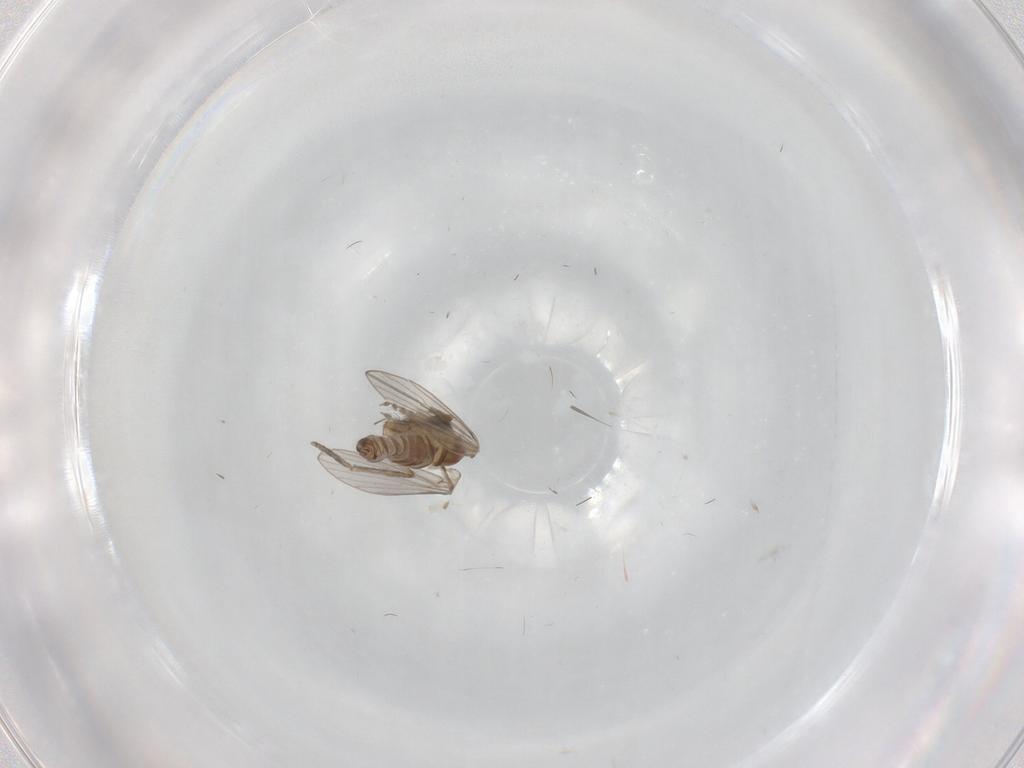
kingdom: Animalia
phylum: Arthropoda
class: Insecta
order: Diptera
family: Psychodidae
